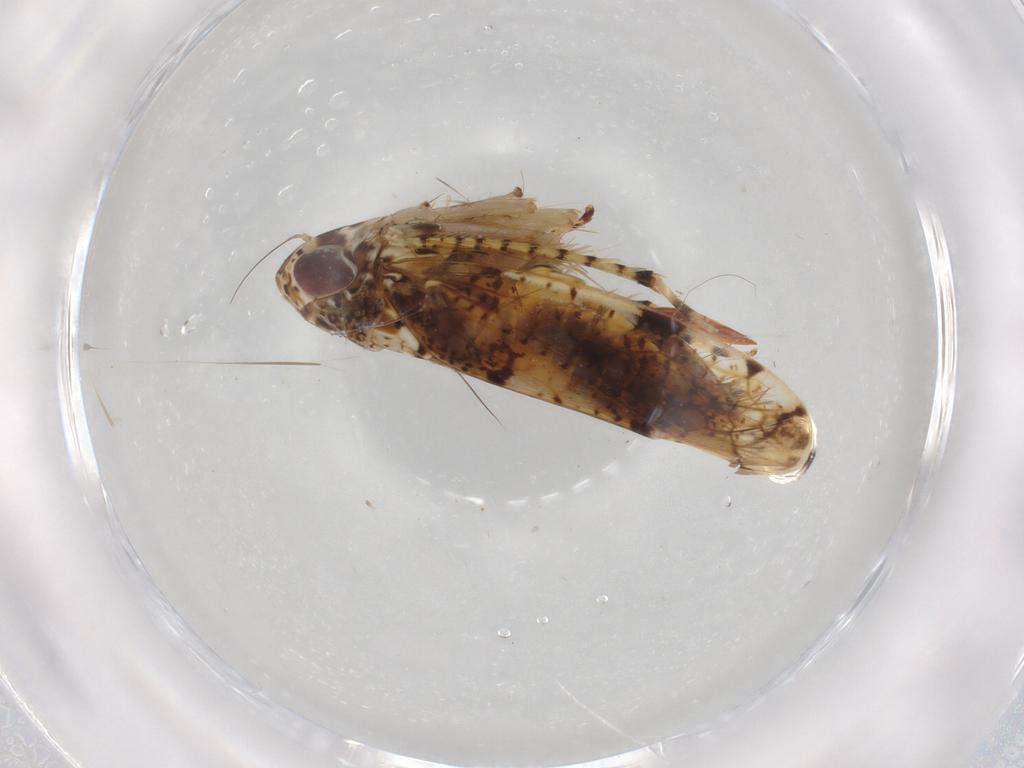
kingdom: Animalia
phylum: Arthropoda
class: Insecta
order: Hemiptera
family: Cicadellidae
